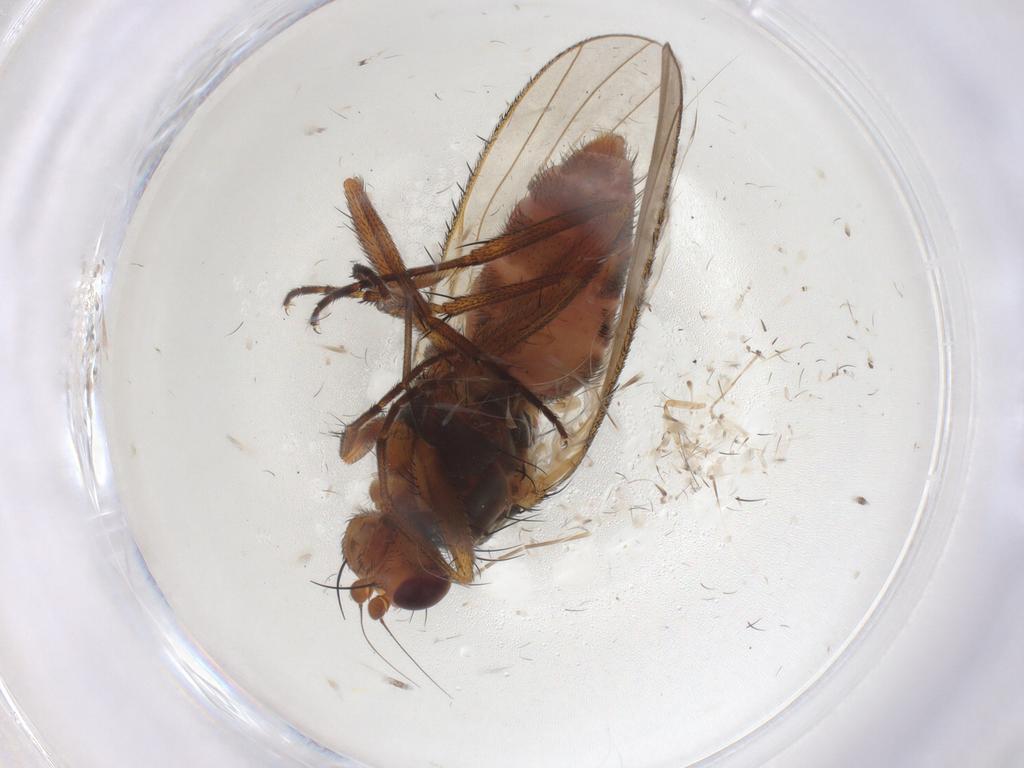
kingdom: Animalia
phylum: Arthropoda
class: Insecta
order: Diptera
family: Heleomyzidae
